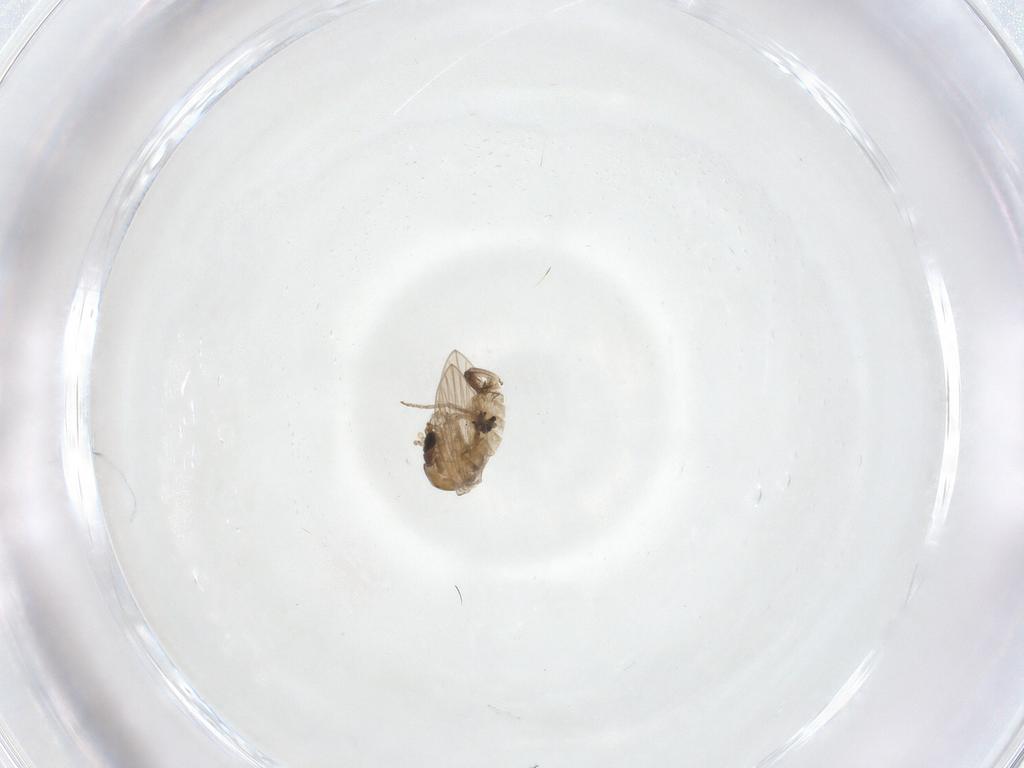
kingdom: Animalia
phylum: Arthropoda
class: Insecta
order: Diptera
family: Psychodidae
